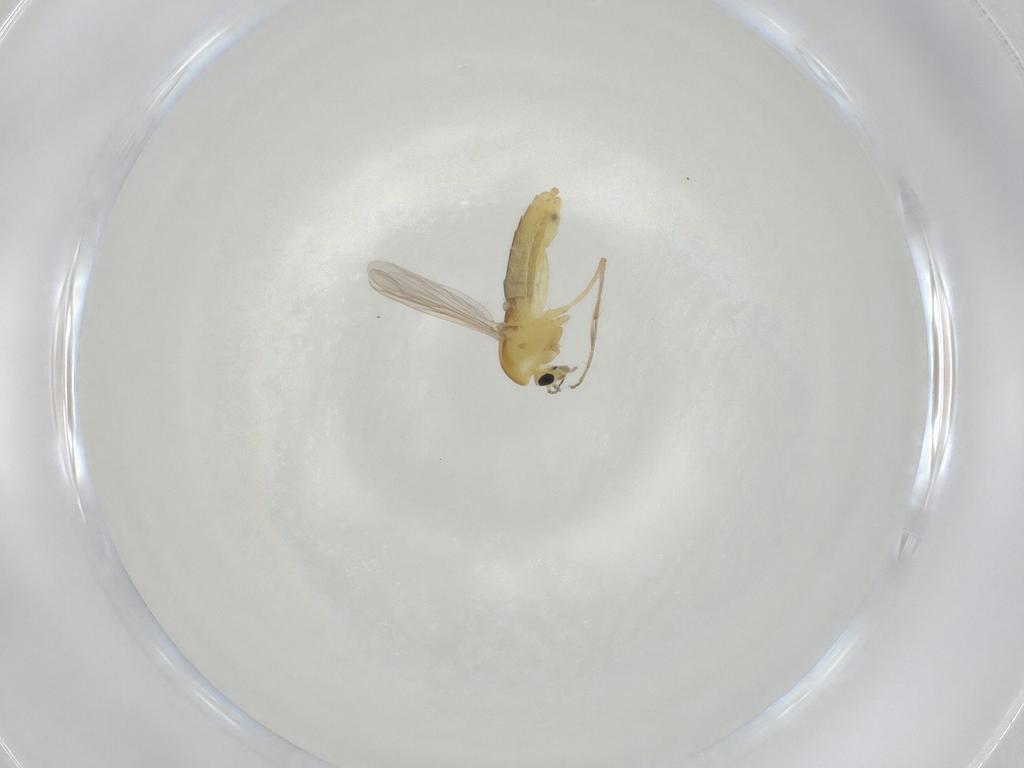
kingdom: Animalia
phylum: Arthropoda
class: Insecta
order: Diptera
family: Chironomidae
